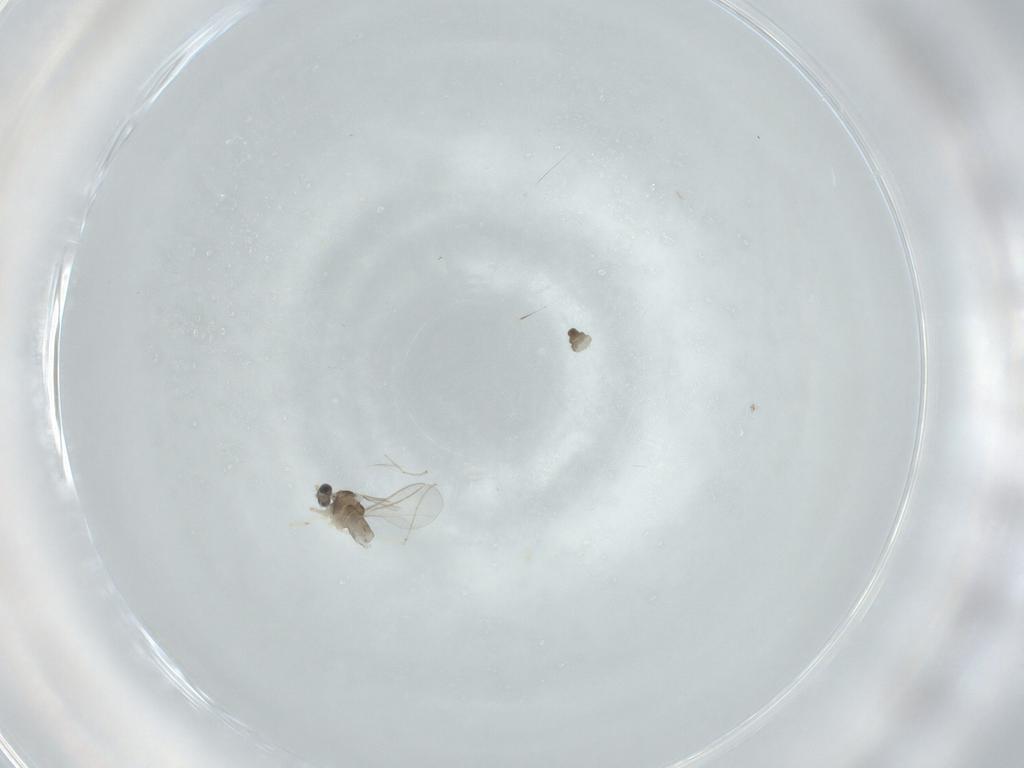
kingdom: Animalia
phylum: Arthropoda
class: Insecta
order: Diptera
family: Cecidomyiidae
